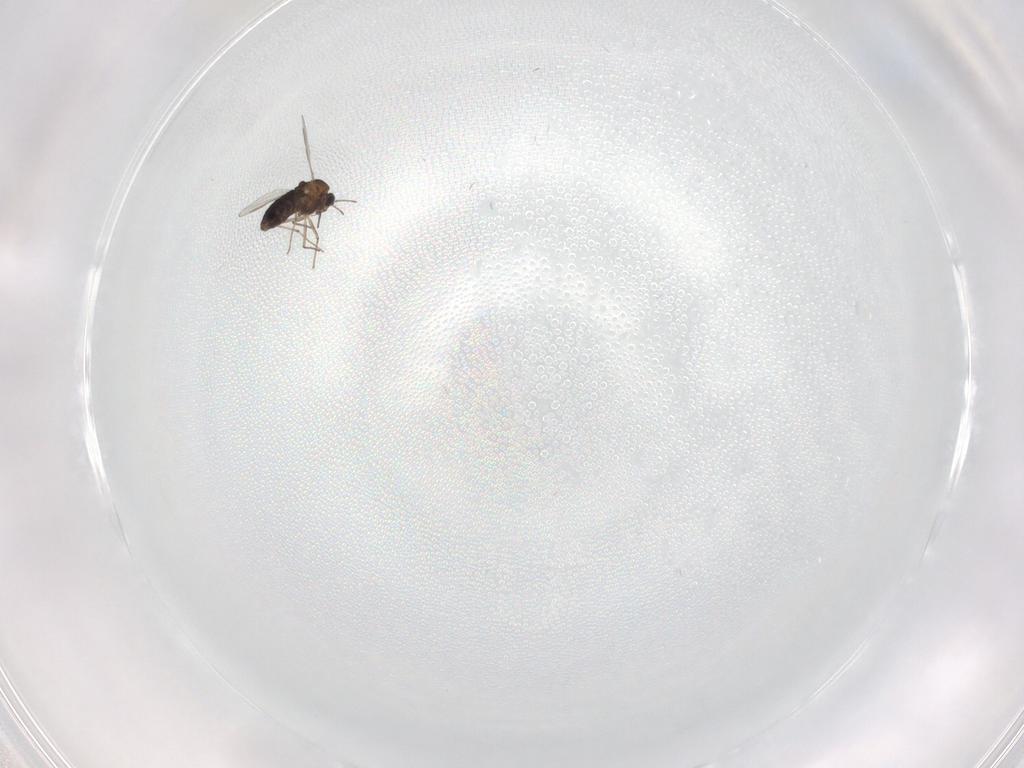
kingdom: Animalia
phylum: Arthropoda
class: Insecta
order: Diptera
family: Chironomidae
